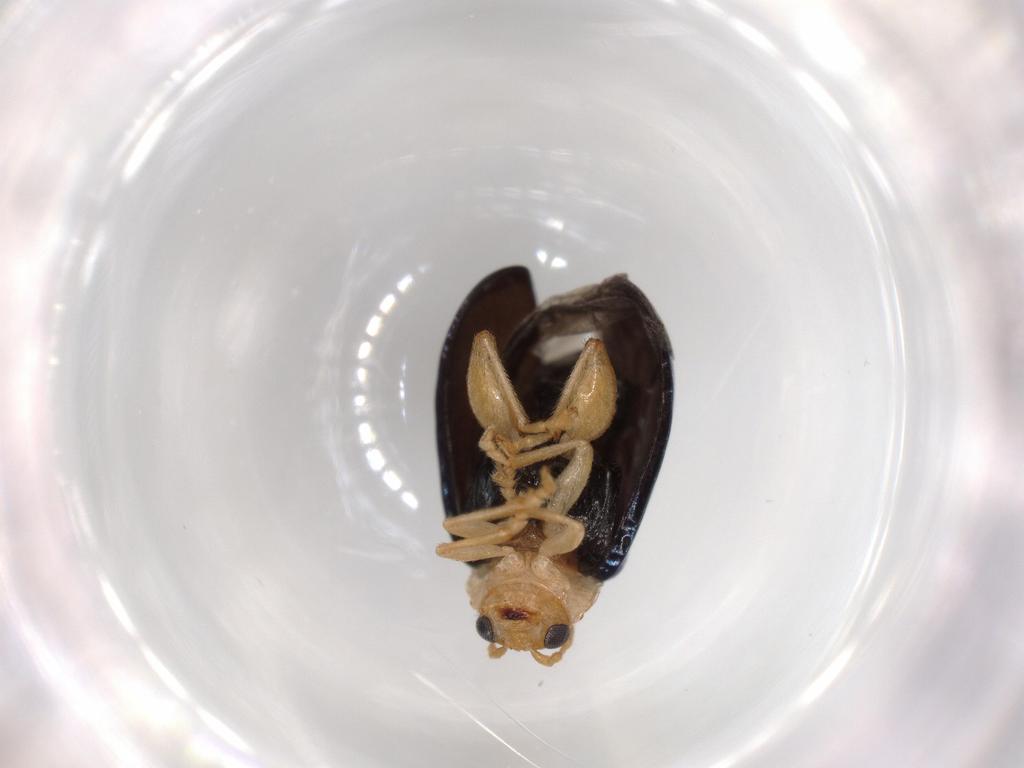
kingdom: Animalia
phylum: Arthropoda
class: Insecta
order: Coleoptera
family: Chrysomelidae
